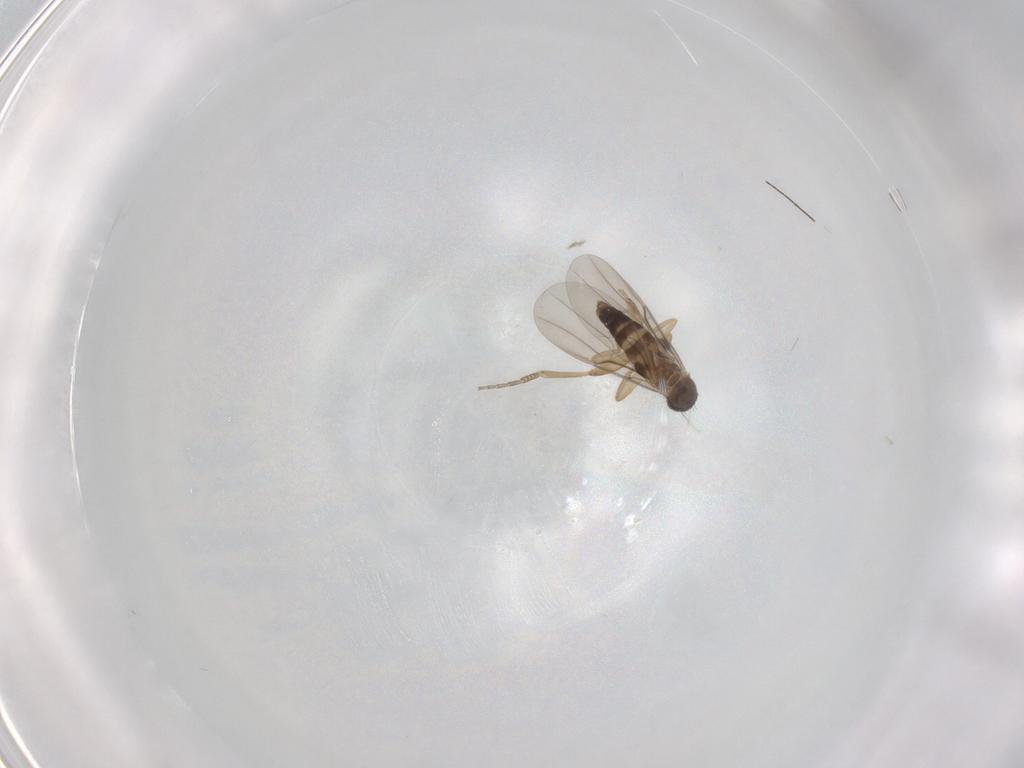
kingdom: Animalia
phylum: Arthropoda
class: Insecta
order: Diptera
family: Phoridae
